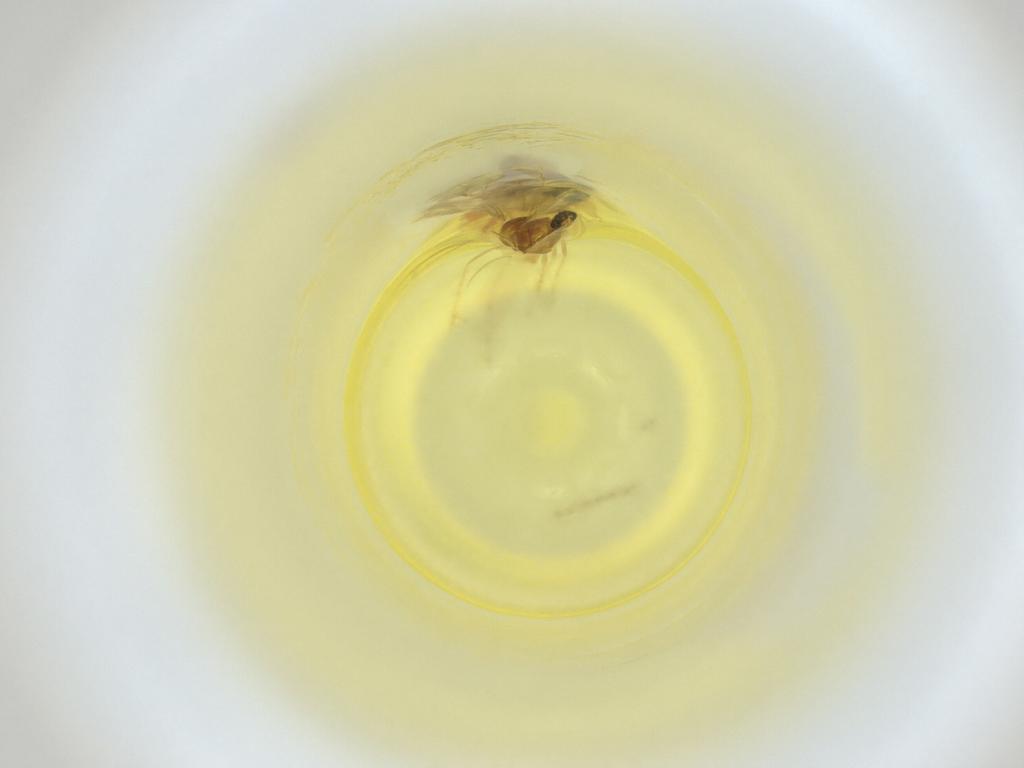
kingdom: Animalia
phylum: Arthropoda
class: Insecta
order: Diptera
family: Cecidomyiidae
